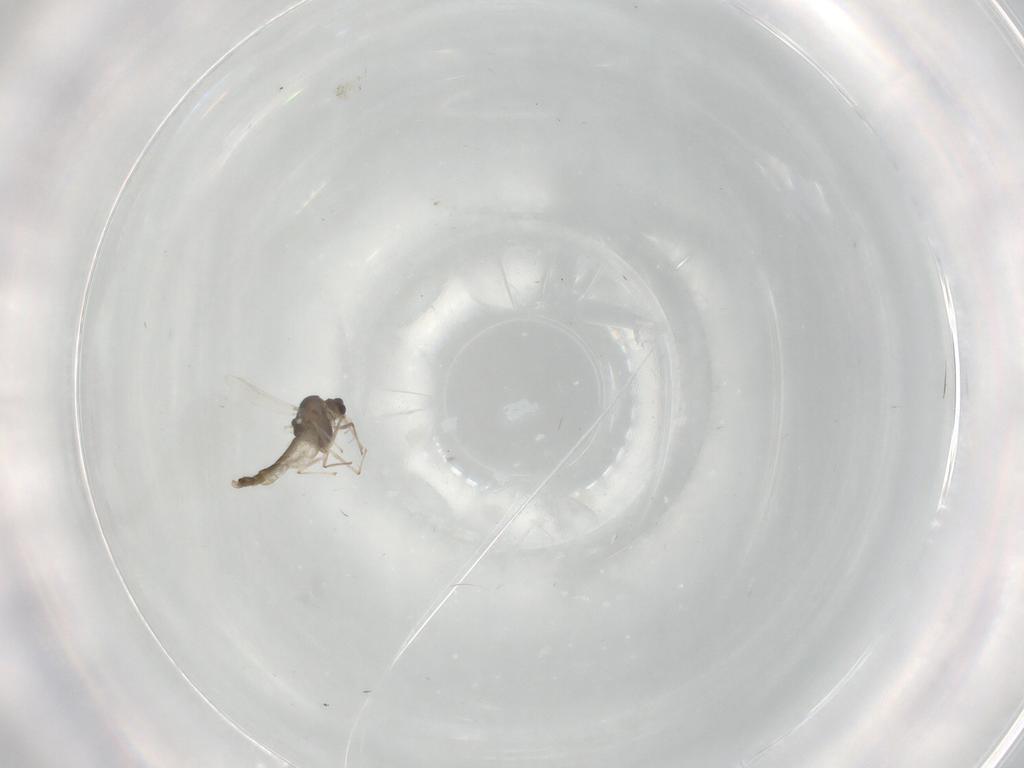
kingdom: Animalia
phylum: Arthropoda
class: Insecta
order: Diptera
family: Chironomidae
